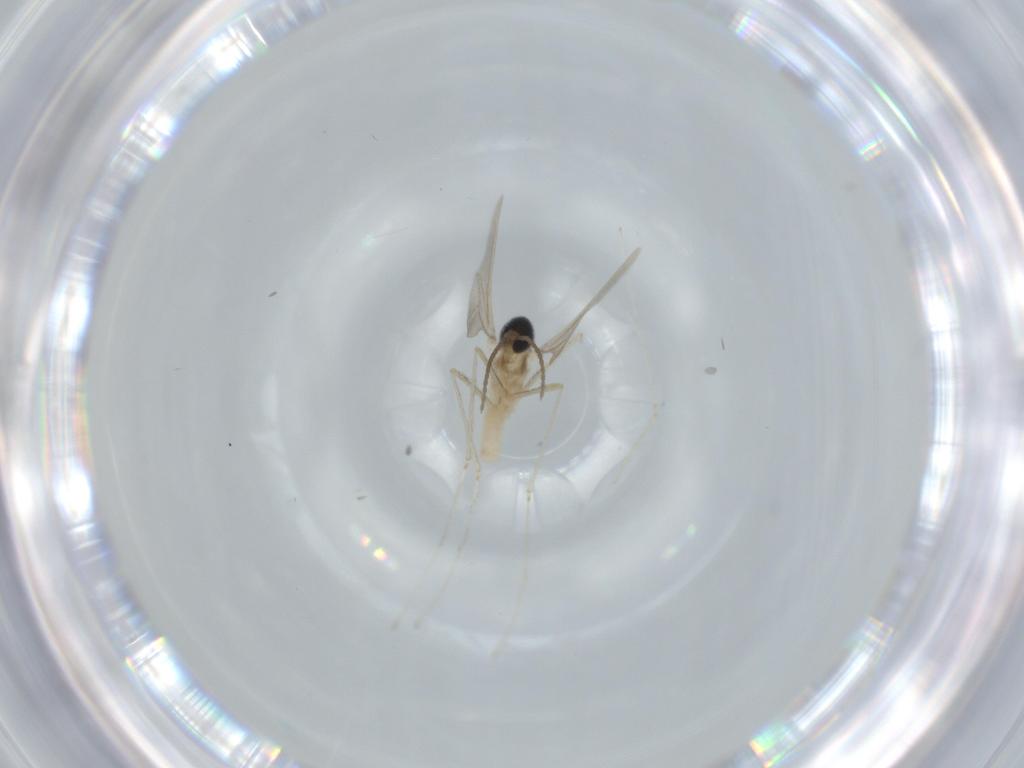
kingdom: Animalia
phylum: Arthropoda
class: Insecta
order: Diptera
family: Cecidomyiidae
